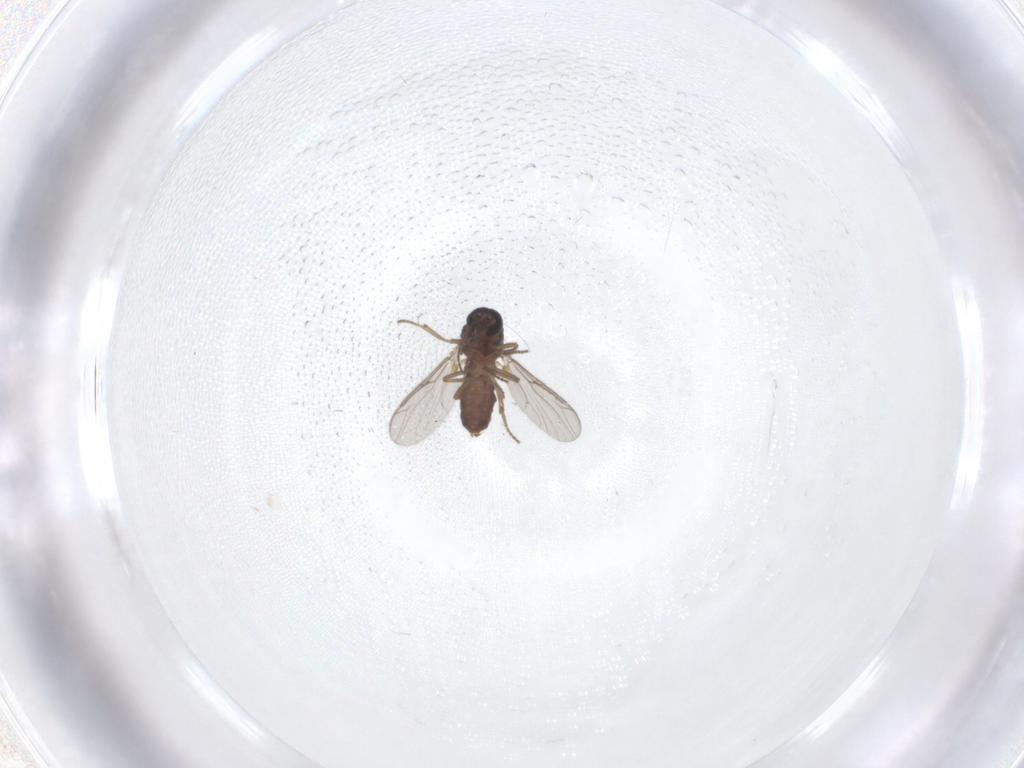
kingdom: Animalia
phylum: Arthropoda
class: Insecta
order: Diptera
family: Ceratopogonidae
